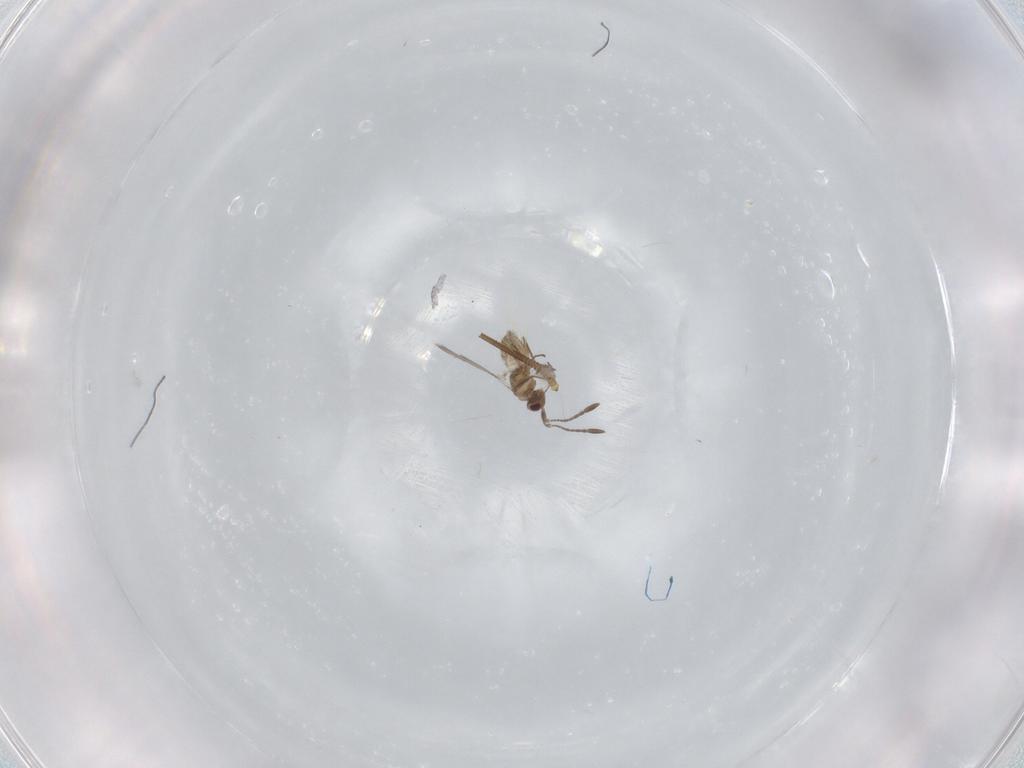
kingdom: Animalia
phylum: Arthropoda
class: Insecta
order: Hymenoptera
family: Mymaridae
